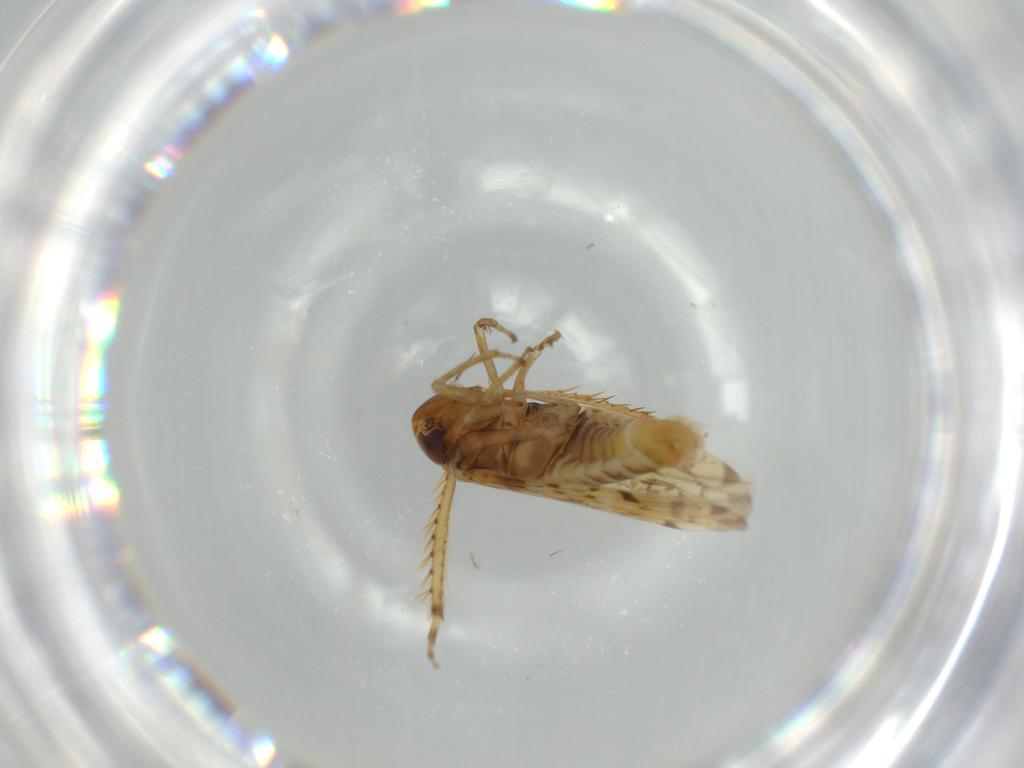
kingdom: Animalia
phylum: Arthropoda
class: Insecta
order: Hemiptera
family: Cicadellidae
